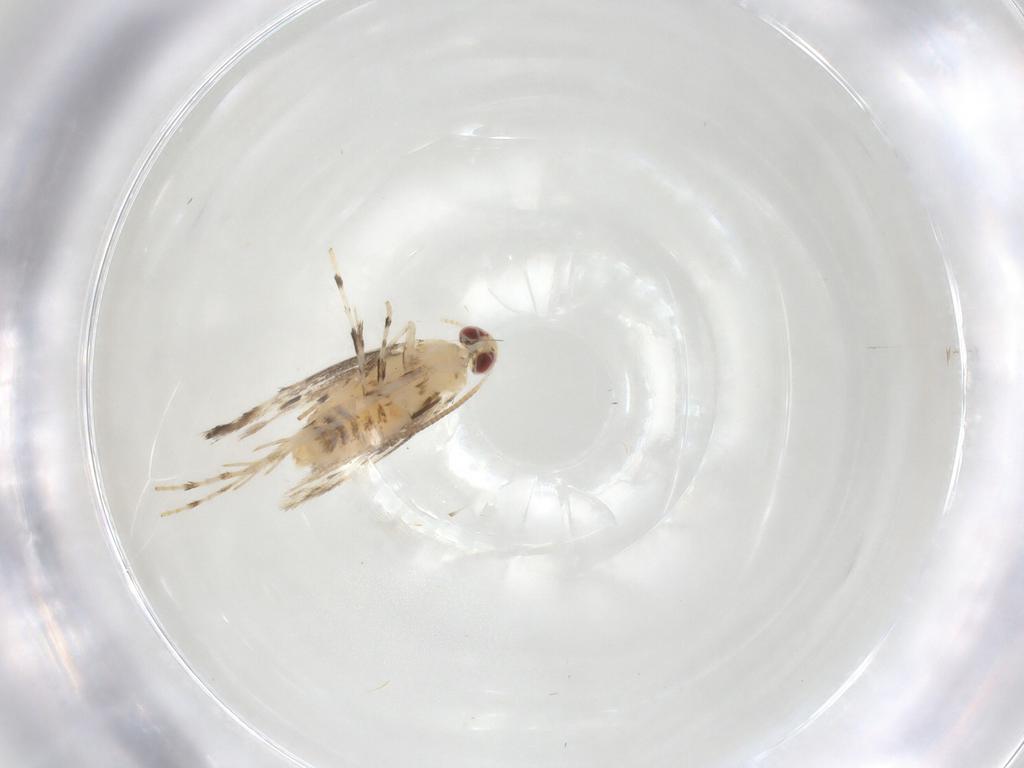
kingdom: Animalia
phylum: Arthropoda
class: Insecta
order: Lepidoptera
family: Gracillariidae
